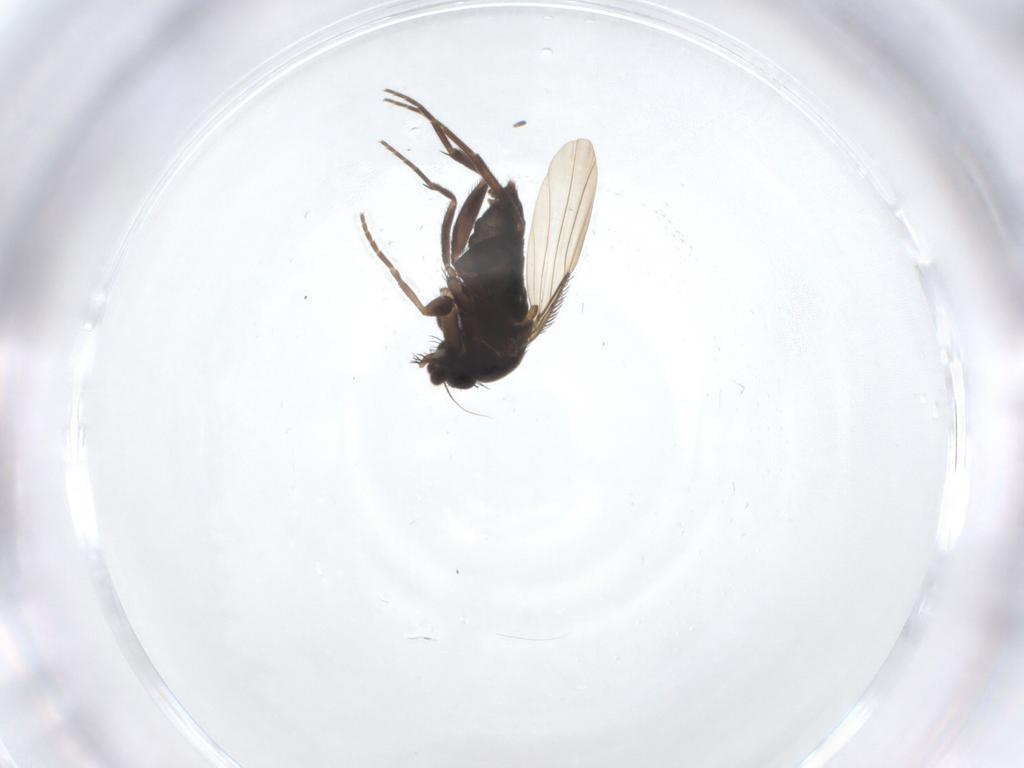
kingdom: Animalia
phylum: Arthropoda
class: Insecta
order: Diptera
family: Phoridae
